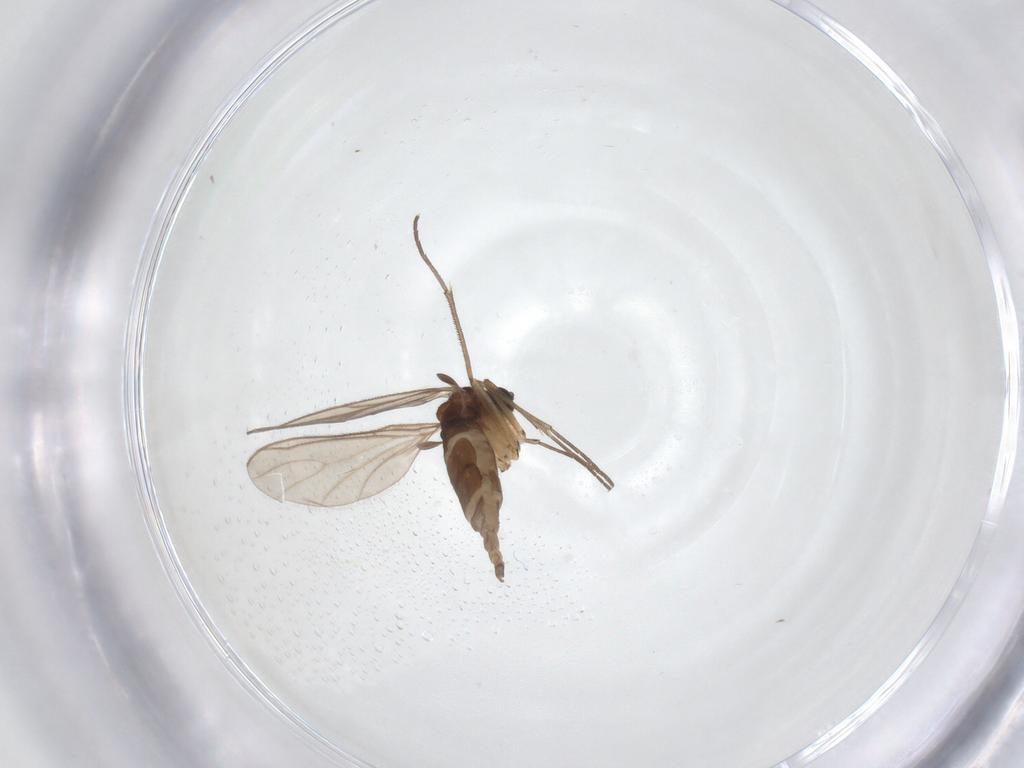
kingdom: Animalia
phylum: Arthropoda
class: Insecta
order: Diptera
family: Sciaridae
